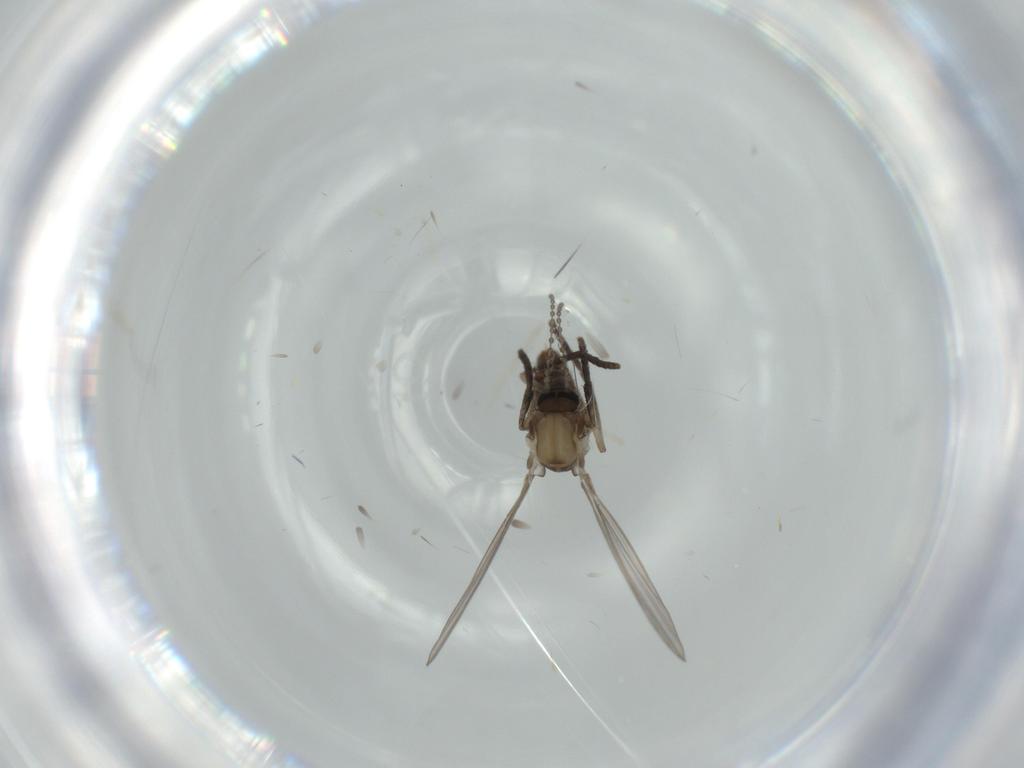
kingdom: Animalia
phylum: Arthropoda
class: Insecta
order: Diptera
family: Psychodidae
